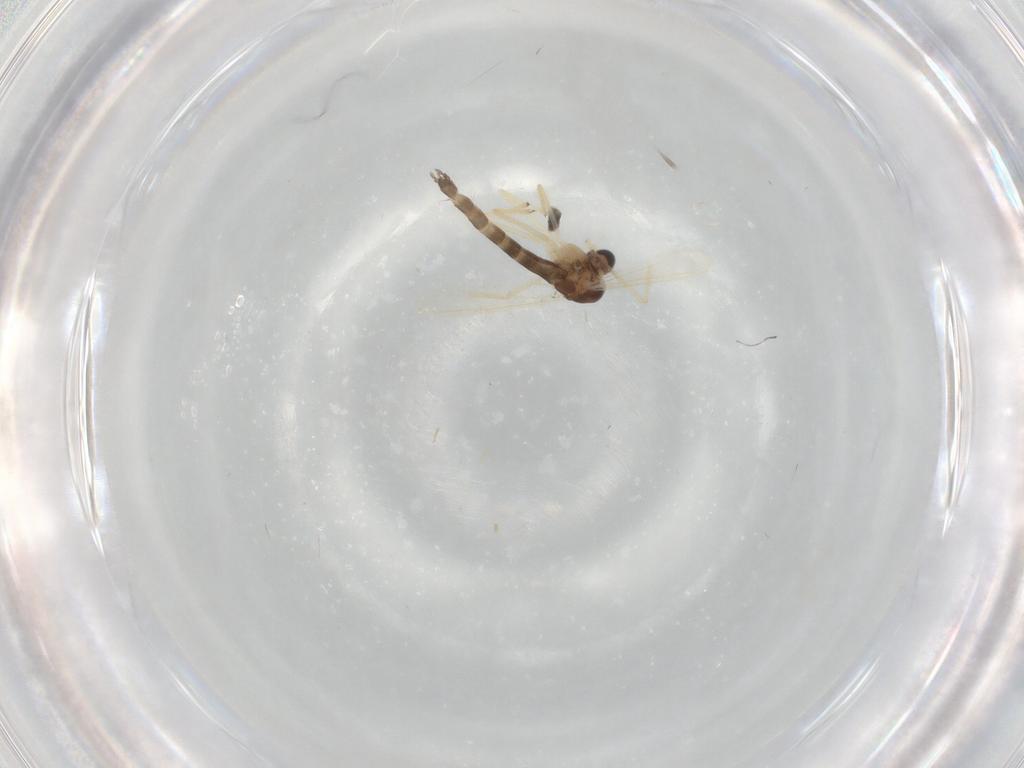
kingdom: Animalia
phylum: Arthropoda
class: Insecta
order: Diptera
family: Chironomidae
